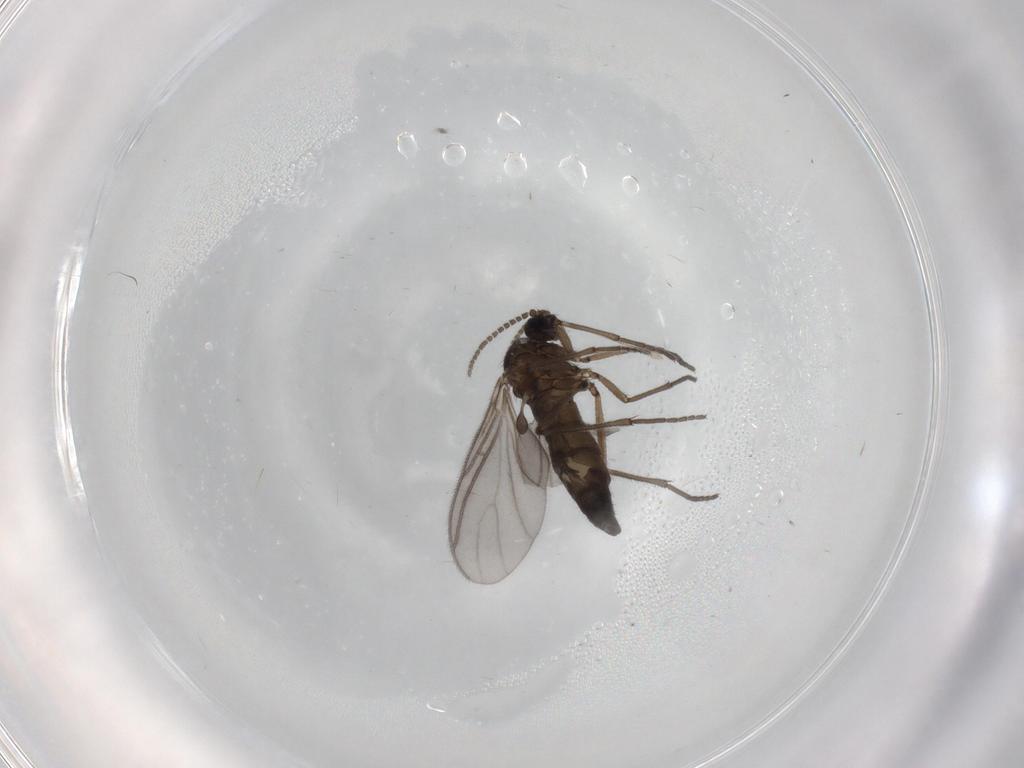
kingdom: Animalia
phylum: Arthropoda
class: Insecta
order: Diptera
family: Sciaridae
